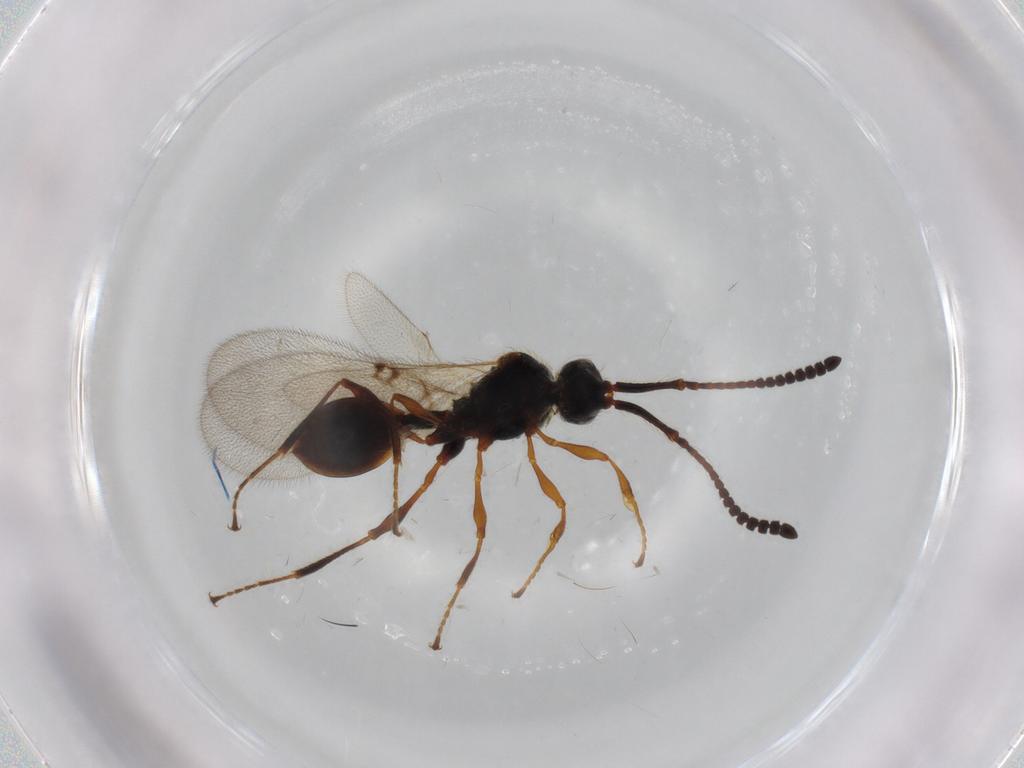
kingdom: Animalia
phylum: Arthropoda
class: Insecta
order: Hymenoptera
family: Diapriidae
